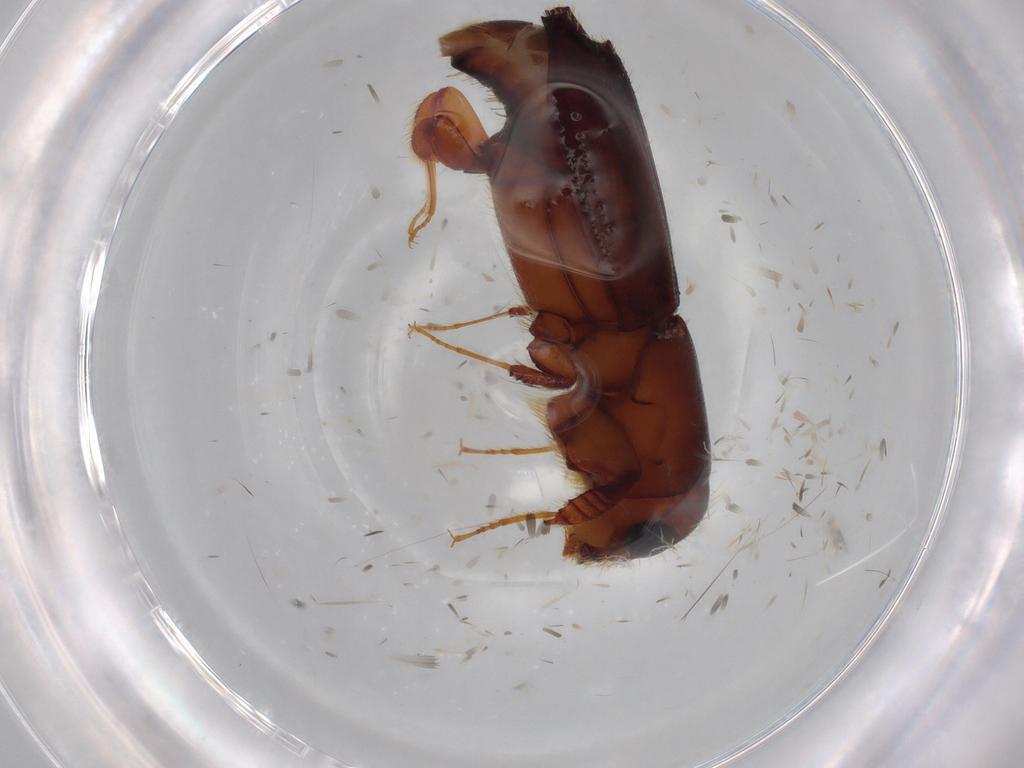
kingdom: Animalia
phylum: Arthropoda
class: Insecta
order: Coleoptera
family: Curculionidae
